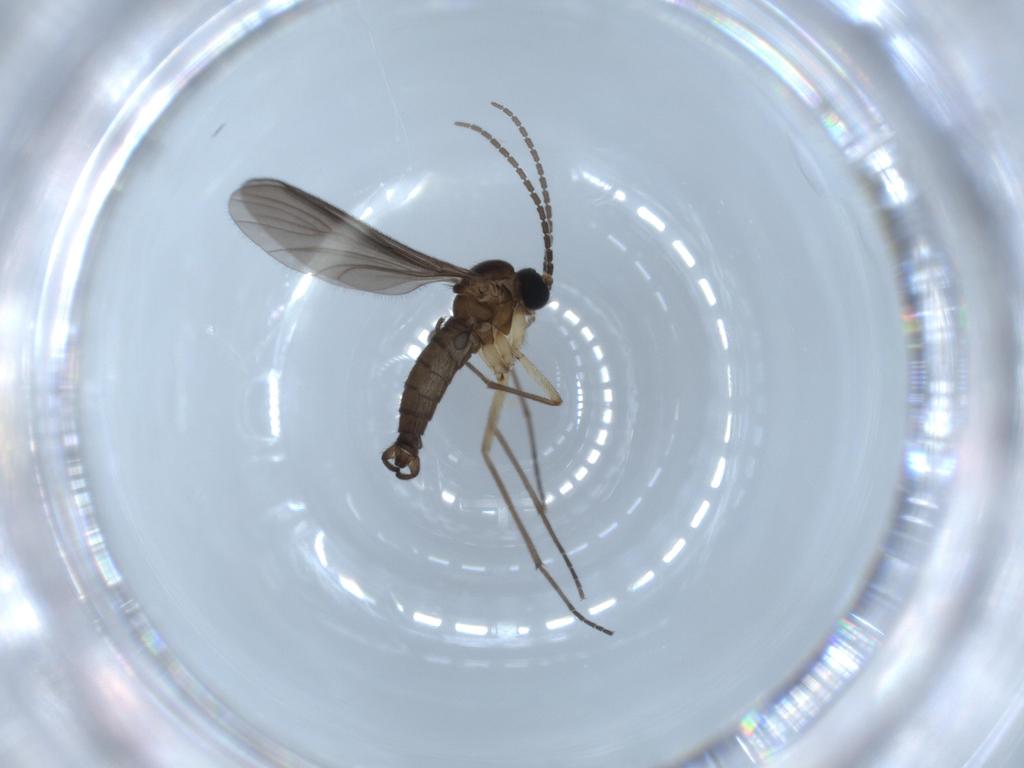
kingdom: Animalia
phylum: Arthropoda
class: Insecta
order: Diptera
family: Sciaridae
